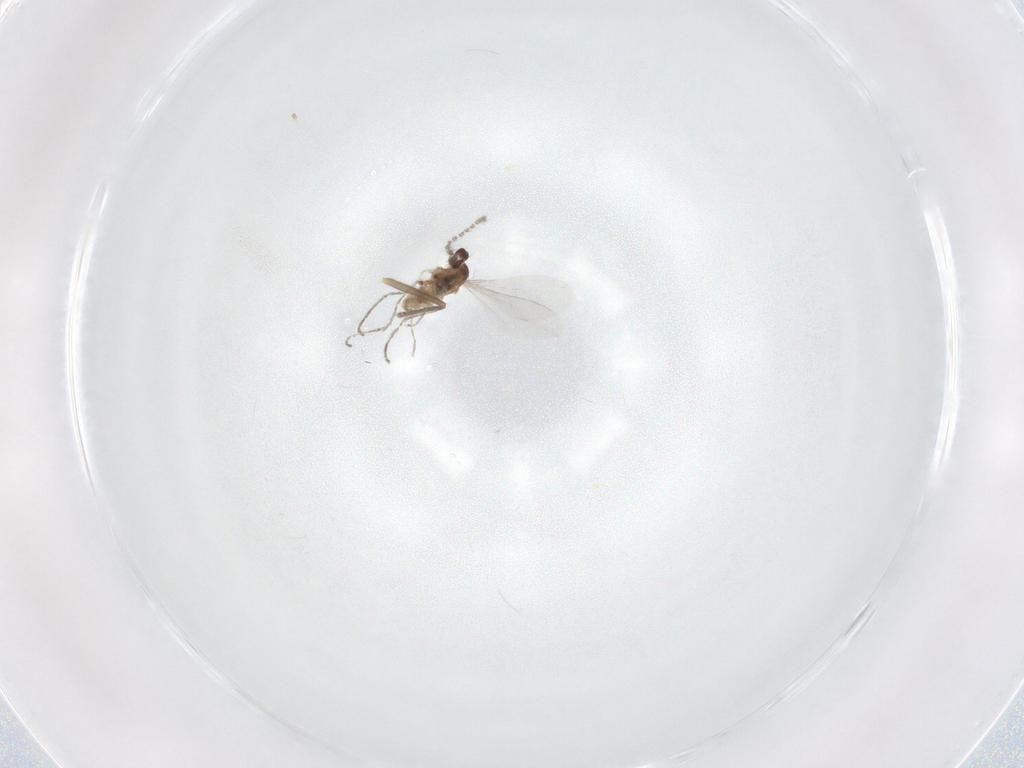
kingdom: Animalia
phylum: Arthropoda
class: Insecta
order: Diptera
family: Cecidomyiidae
